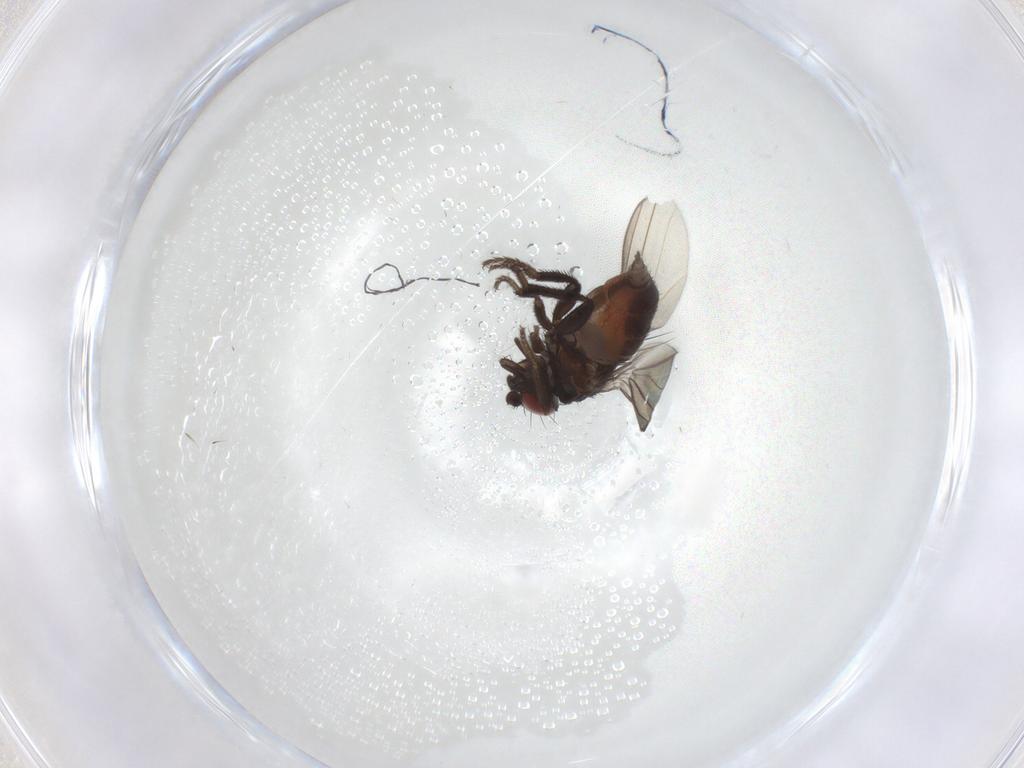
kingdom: Animalia
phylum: Arthropoda
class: Insecta
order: Diptera
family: Milichiidae
